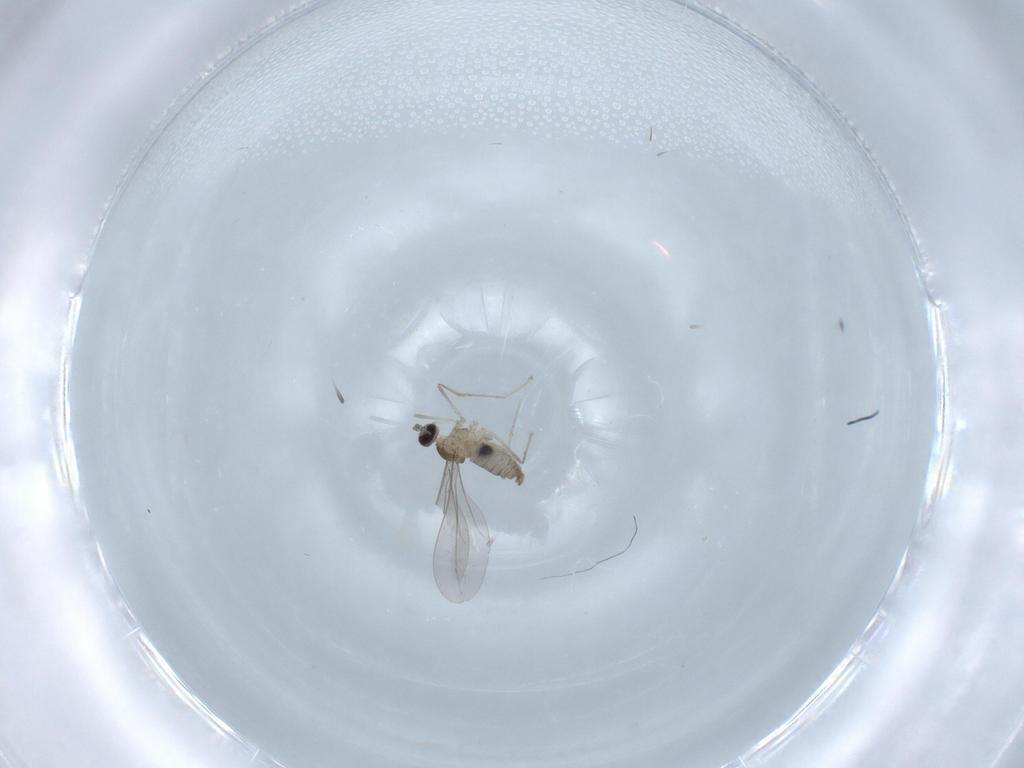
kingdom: Animalia
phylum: Arthropoda
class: Insecta
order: Diptera
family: Cecidomyiidae
